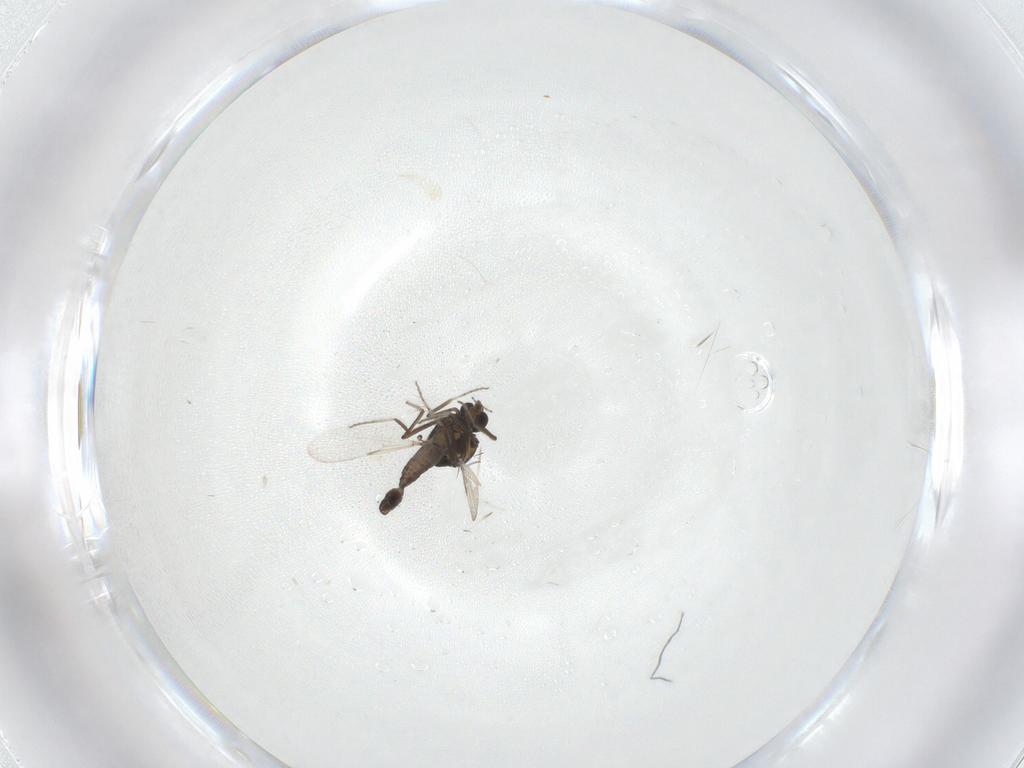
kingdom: Animalia
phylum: Arthropoda
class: Insecta
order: Diptera
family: Ceratopogonidae
